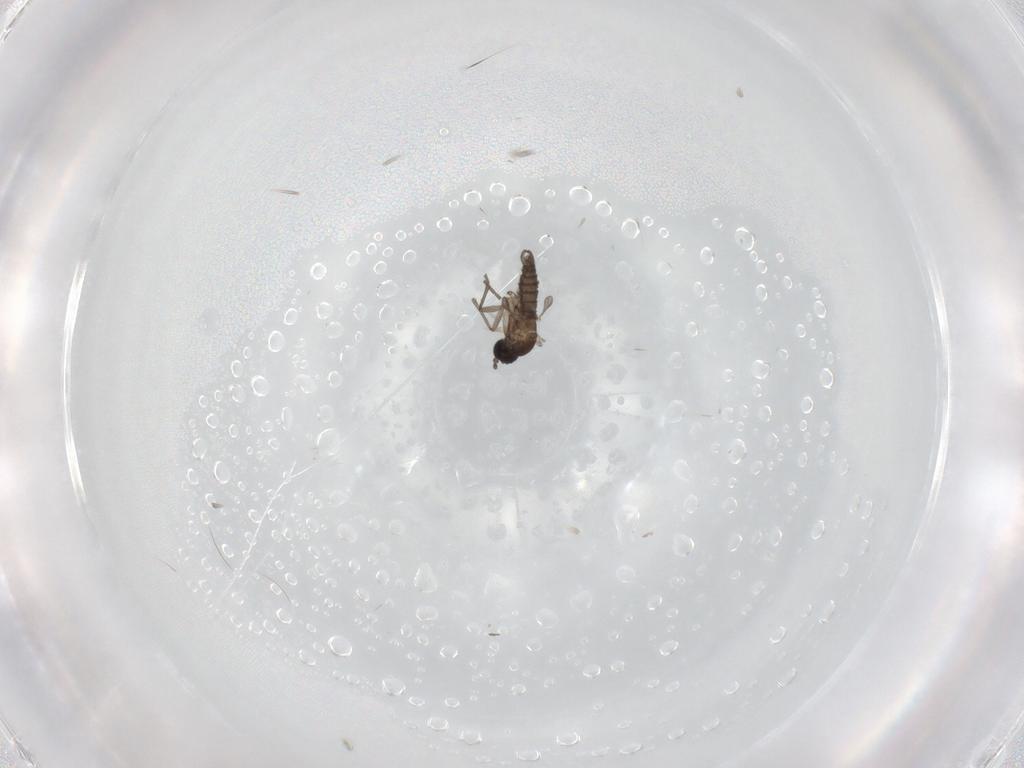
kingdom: Animalia
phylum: Arthropoda
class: Insecta
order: Diptera
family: Sciaridae
